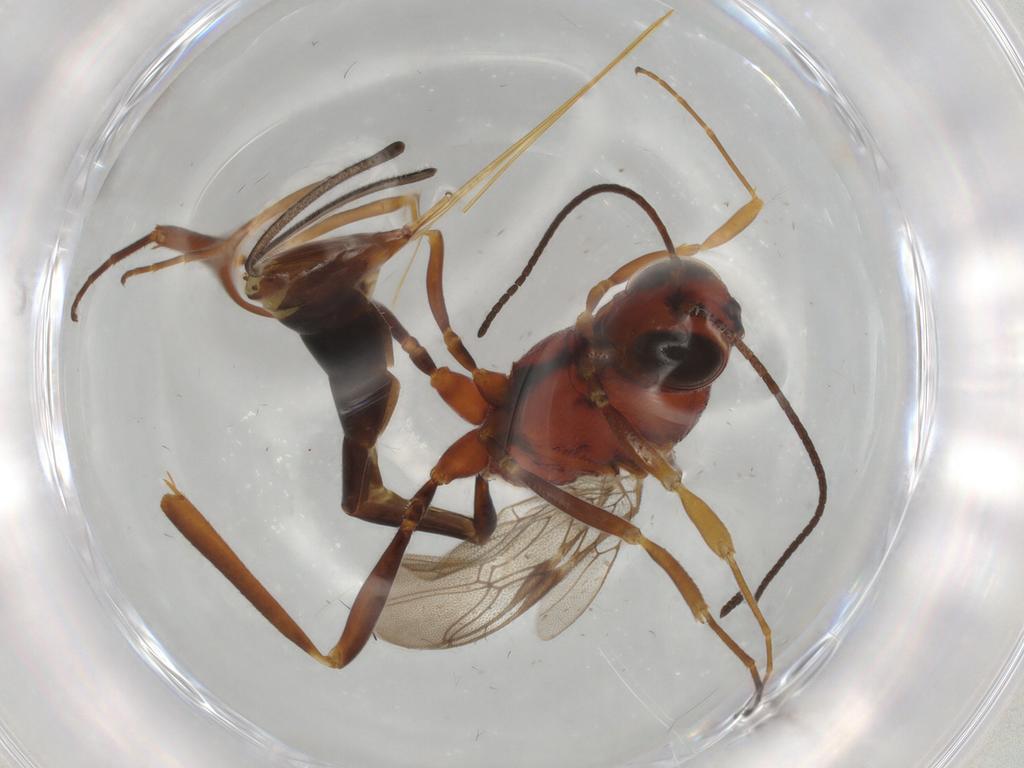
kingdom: Animalia
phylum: Arthropoda
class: Insecta
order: Hymenoptera
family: Ichneumonidae
